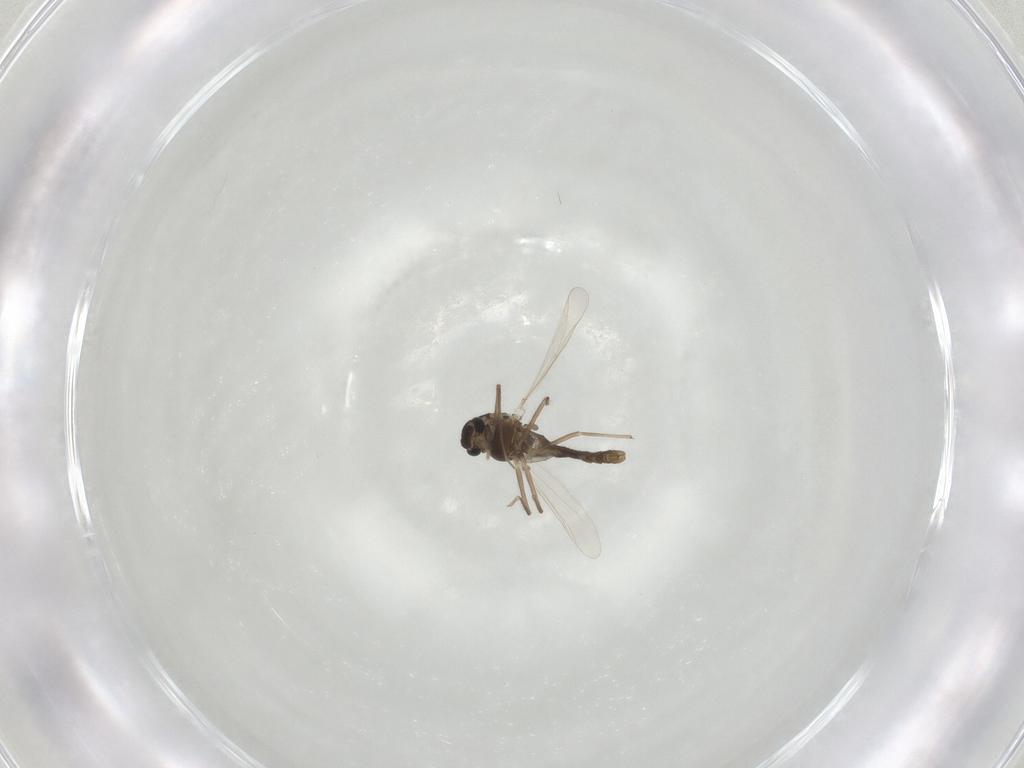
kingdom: Animalia
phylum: Arthropoda
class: Insecta
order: Diptera
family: Chironomidae
